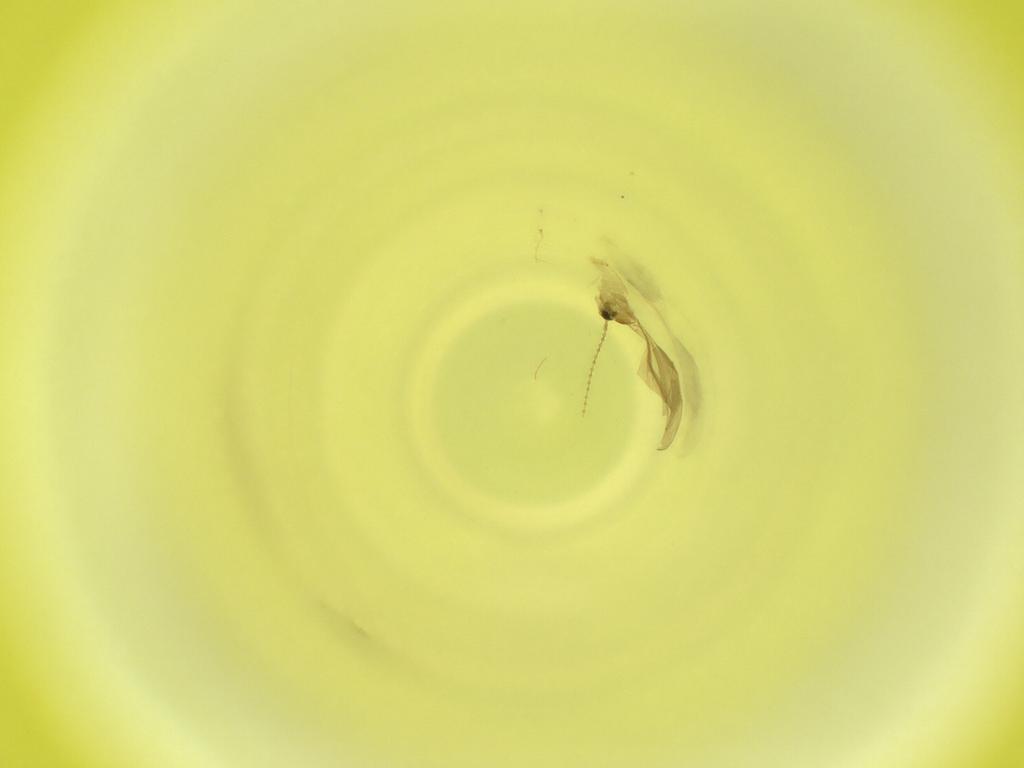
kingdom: Animalia
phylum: Arthropoda
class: Insecta
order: Diptera
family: Cecidomyiidae
